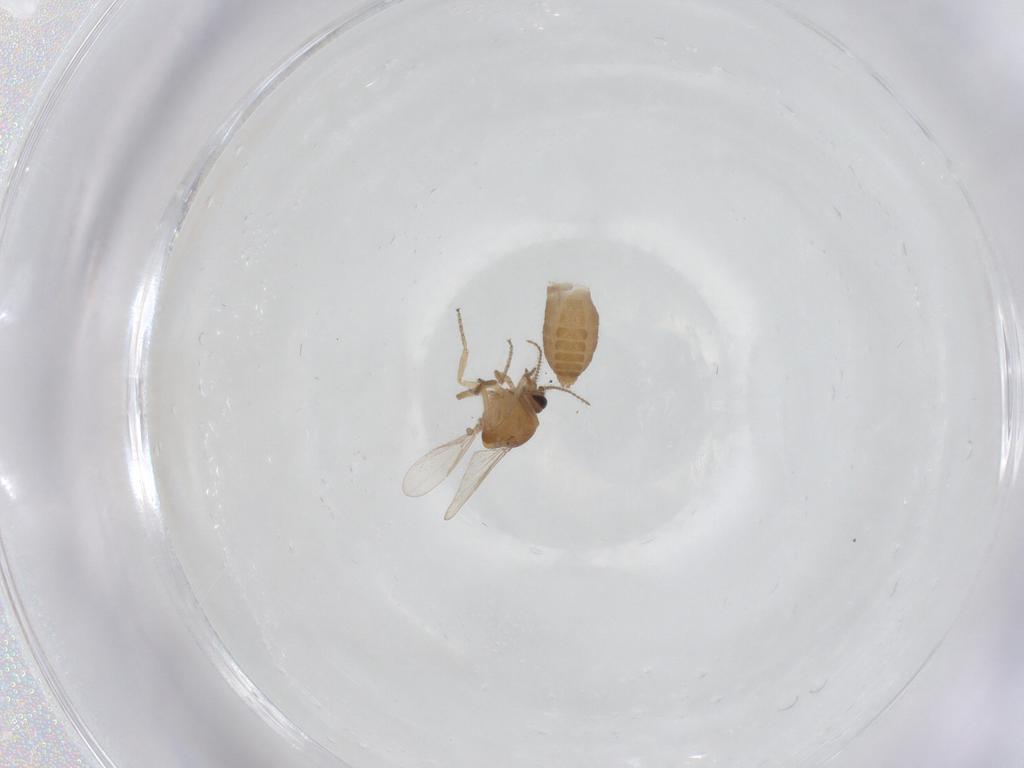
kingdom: Animalia
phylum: Arthropoda
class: Insecta
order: Diptera
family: Ceratopogonidae
